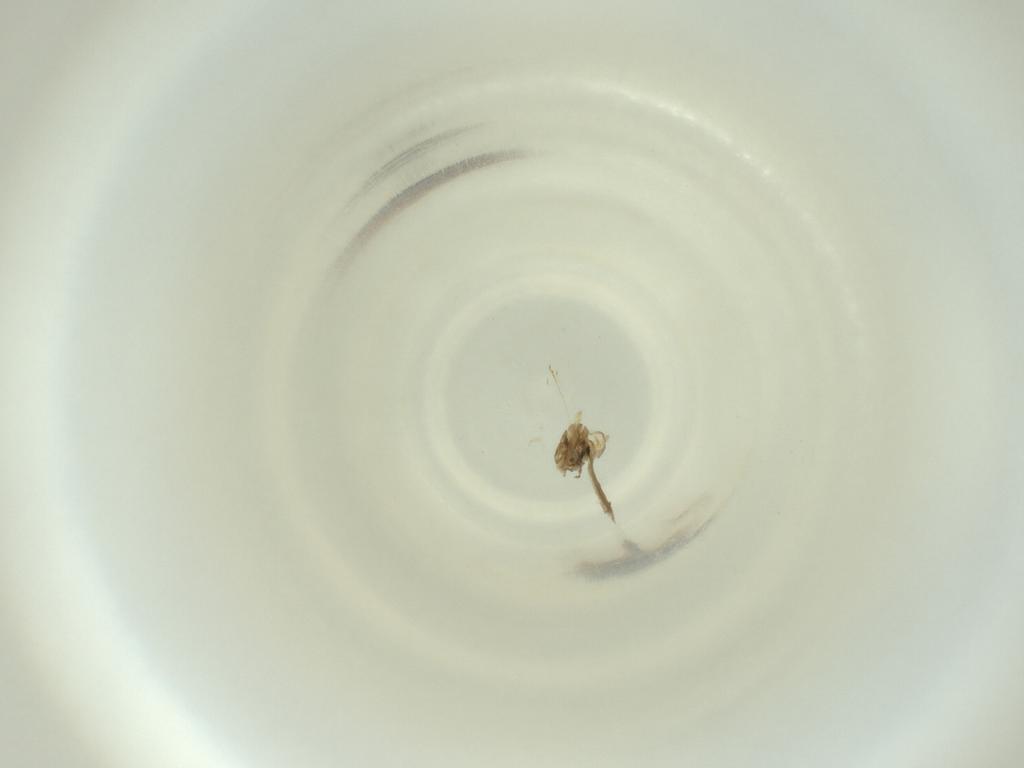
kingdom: Animalia
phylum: Arthropoda
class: Insecta
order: Diptera
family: Cecidomyiidae
